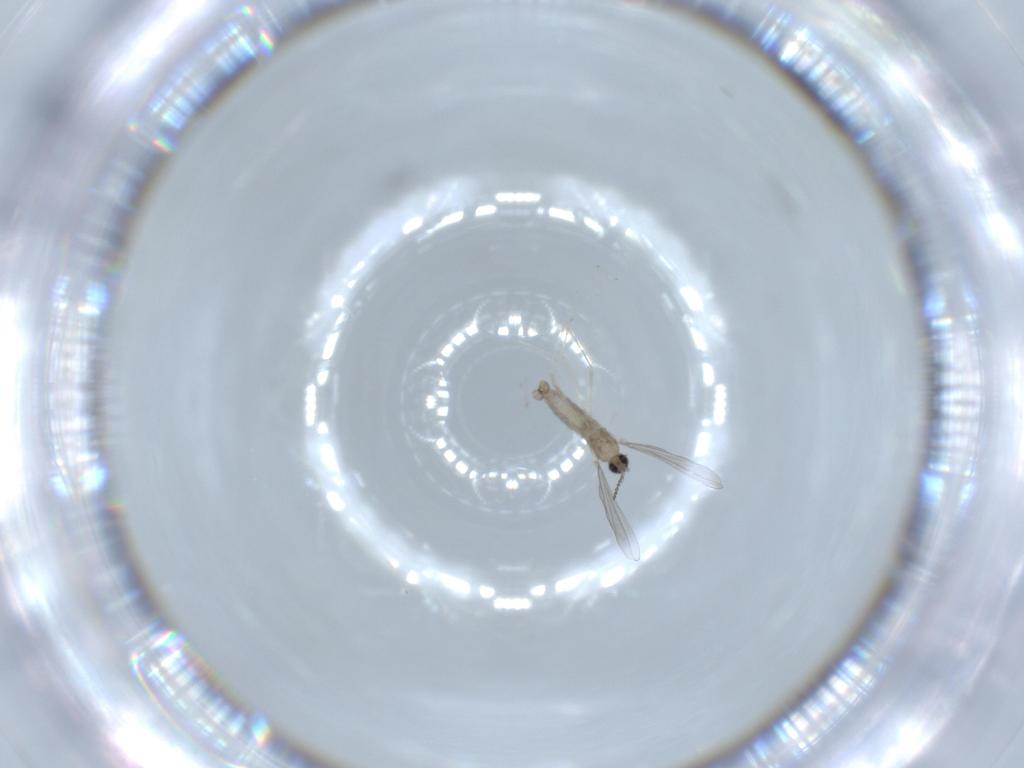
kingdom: Animalia
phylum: Arthropoda
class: Insecta
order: Diptera
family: Cecidomyiidae
